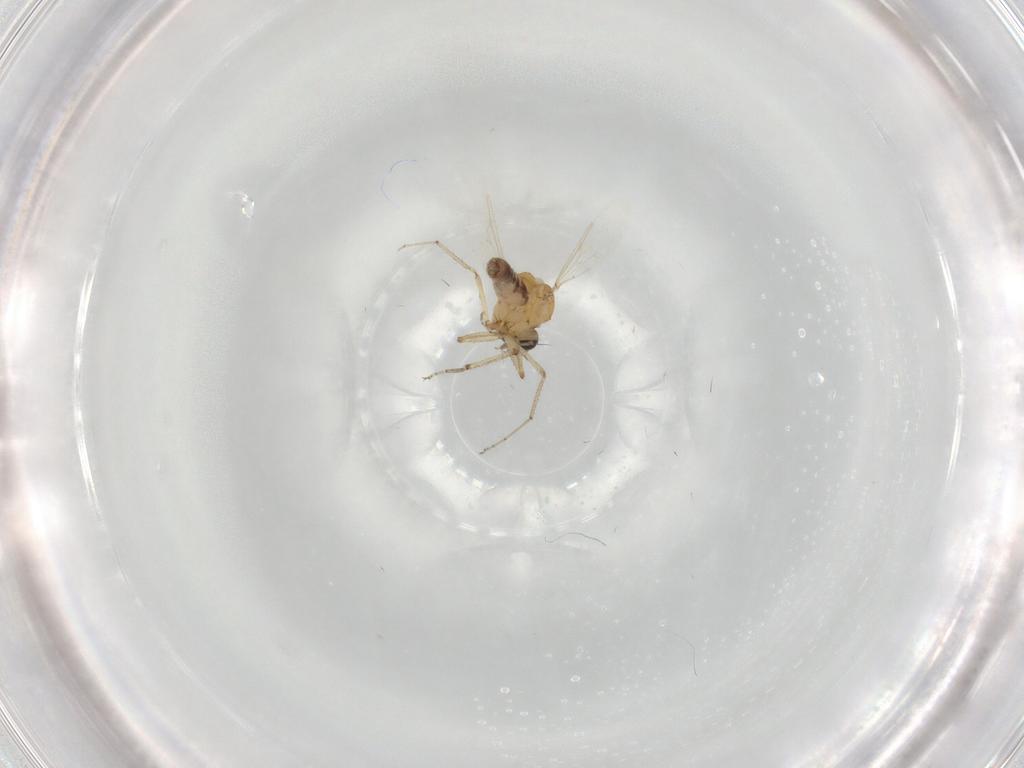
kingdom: Animalia
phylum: Arthropoda
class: Insecta
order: Diptera
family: Ceratopogonidae
